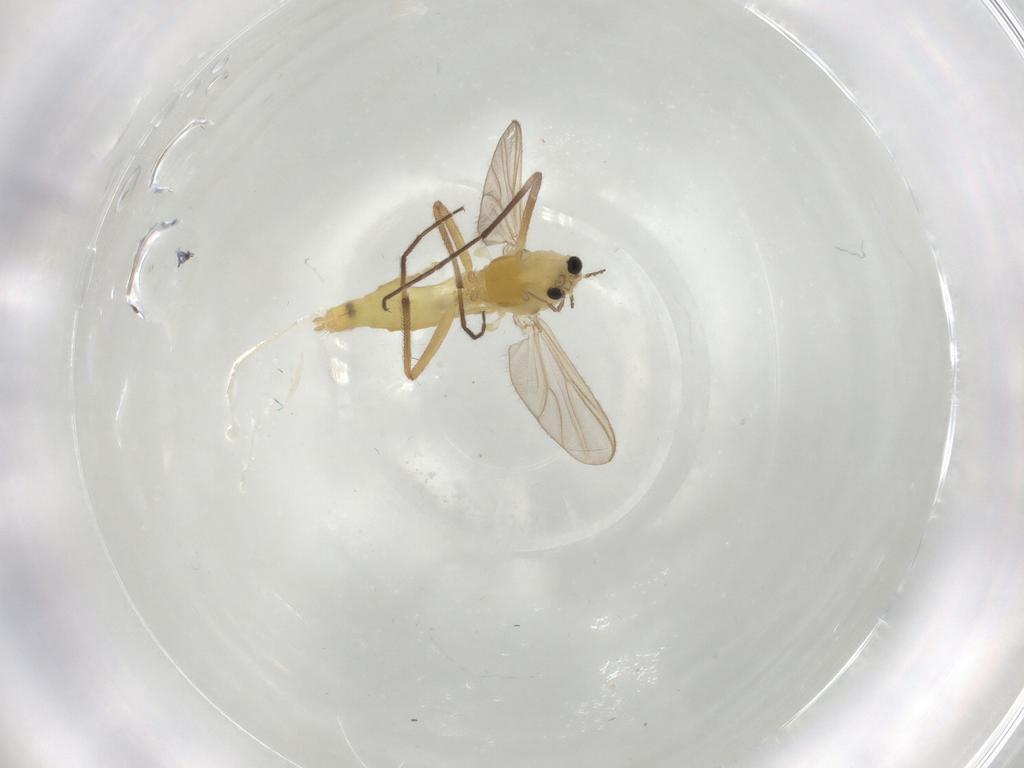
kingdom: Animalia
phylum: Arthropoda
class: Insecta
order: Diptera
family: Chironomidae
